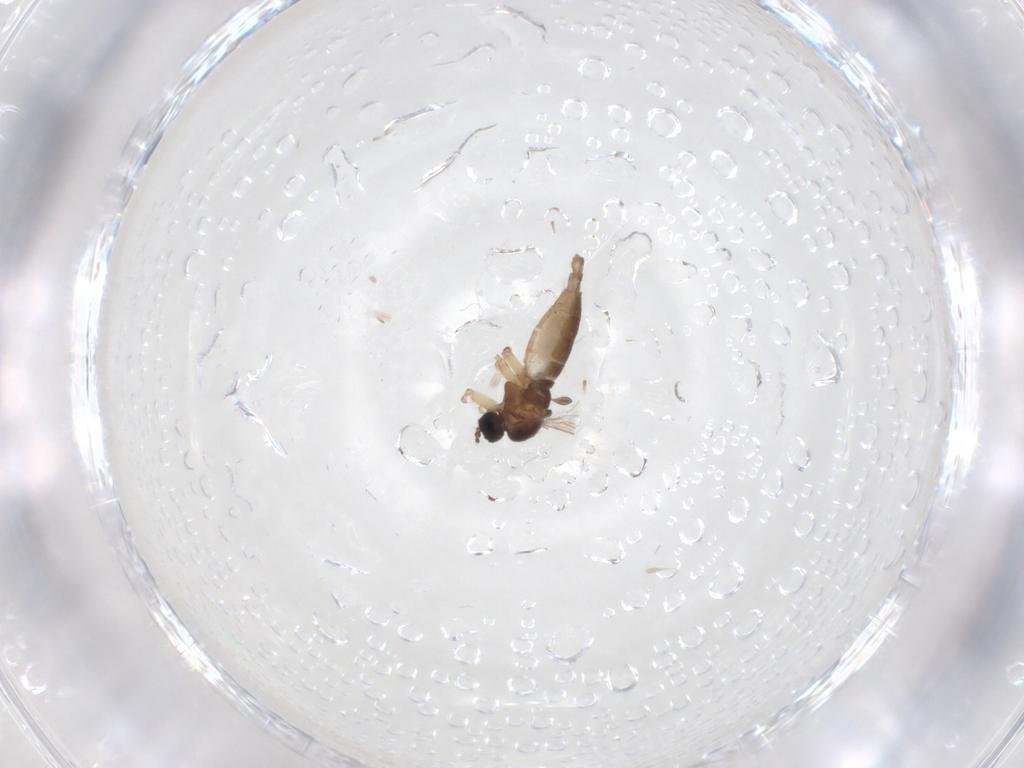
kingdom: Animalia
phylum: Arthropoda
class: Insecta
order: Diptera
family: Sciaridae
